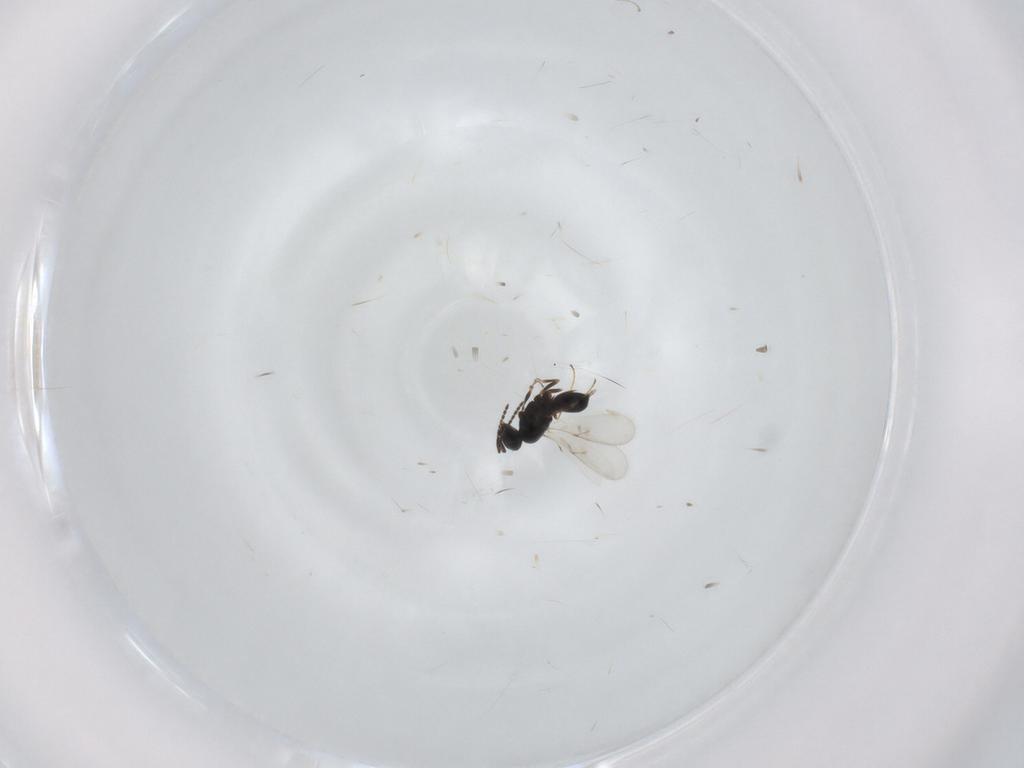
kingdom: Animalia
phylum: Arthropoda
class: Insecta
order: Hymenoptera
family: Scelionidae
